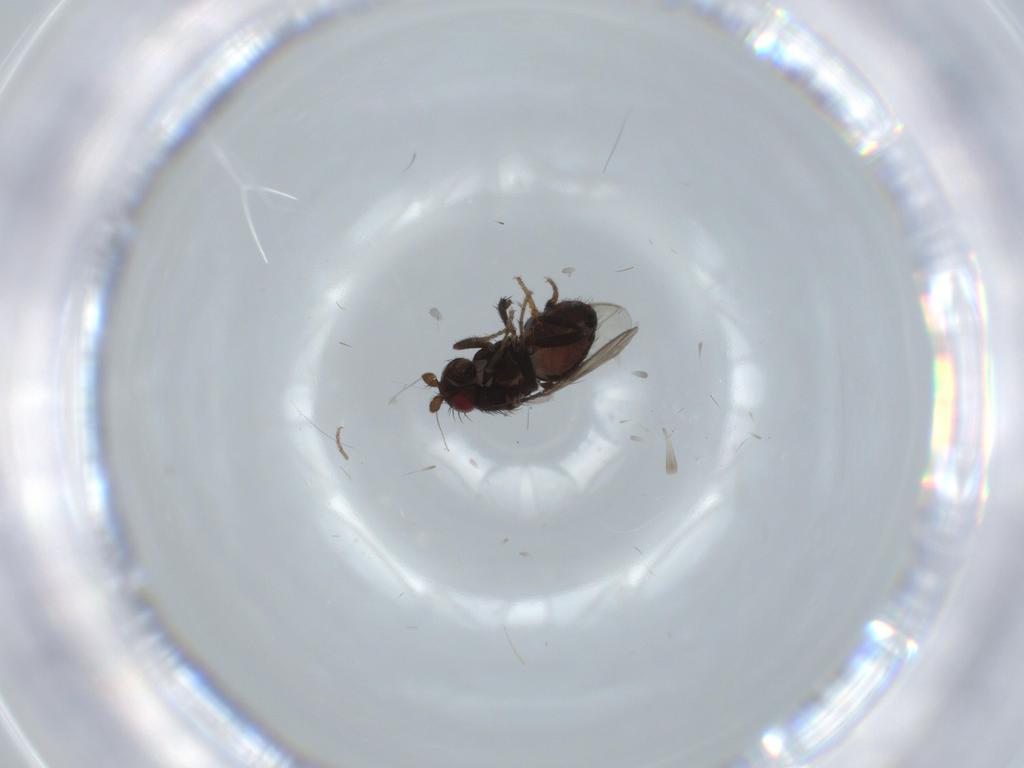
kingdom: Animalia
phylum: Arthropoda
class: Insecta
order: Diptera
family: Sphaeroceridae
